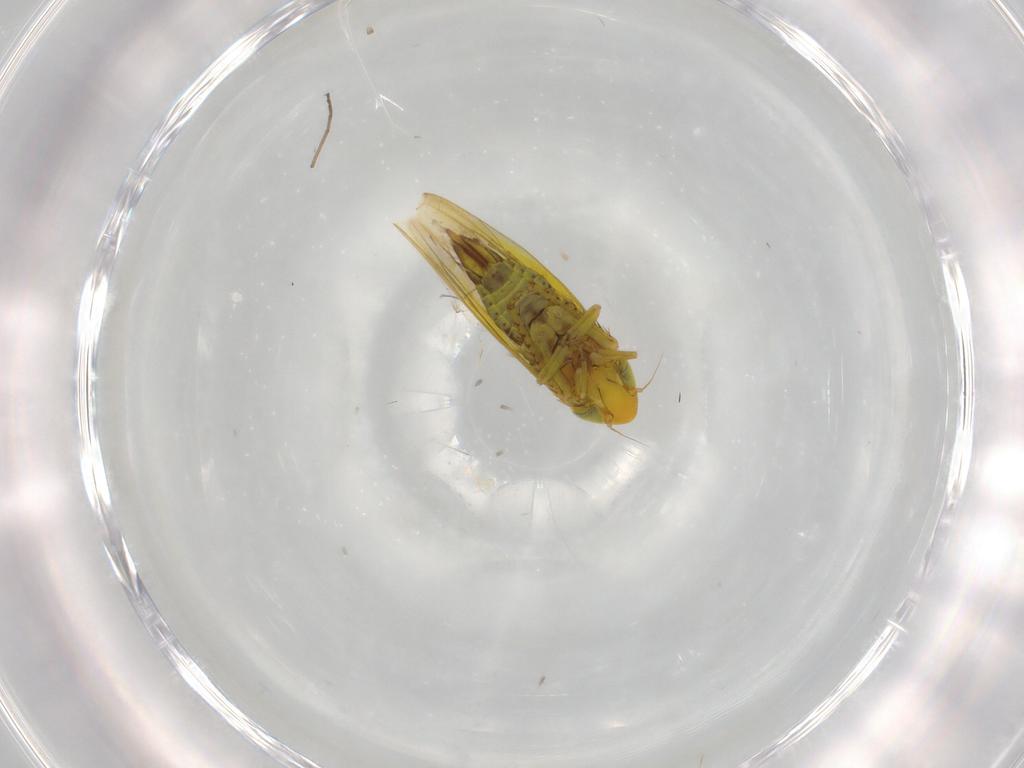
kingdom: Animalia
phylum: Arthropoda
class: Insecta
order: Hemiptera
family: Cicadellidae
